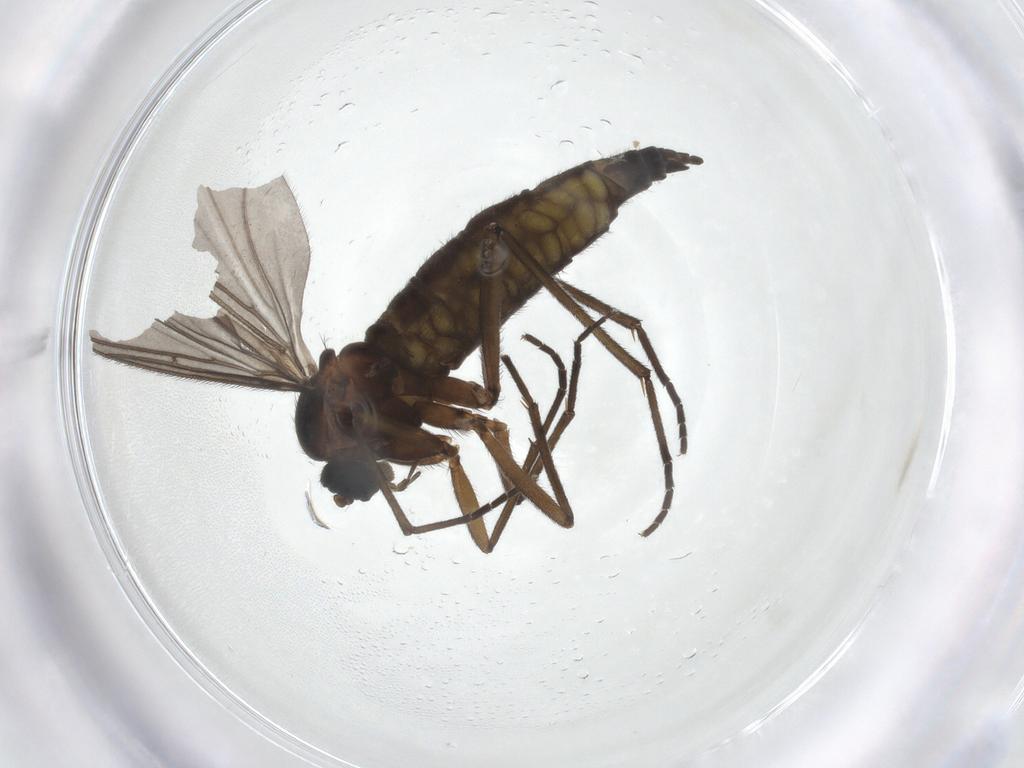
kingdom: Animalia
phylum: Arthropoda
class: Insecta
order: Diptera
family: Sciaridae
